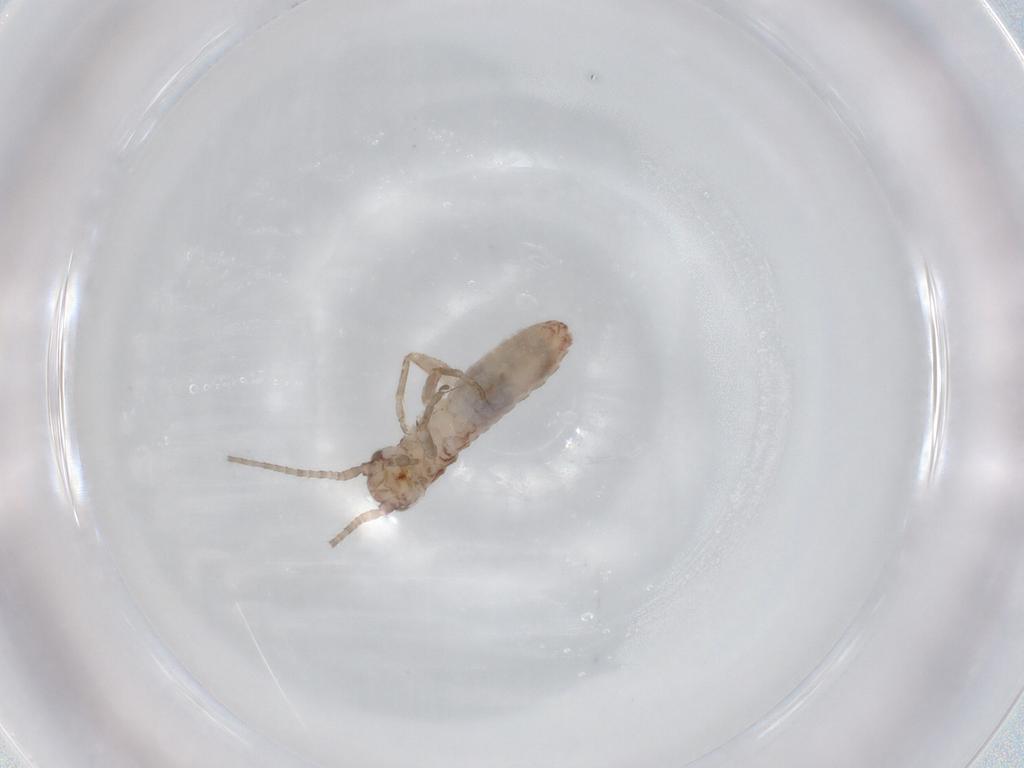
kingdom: Animalia
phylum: Arthropoda
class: Insecta
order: Orthoptera
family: Mogoplistidae
